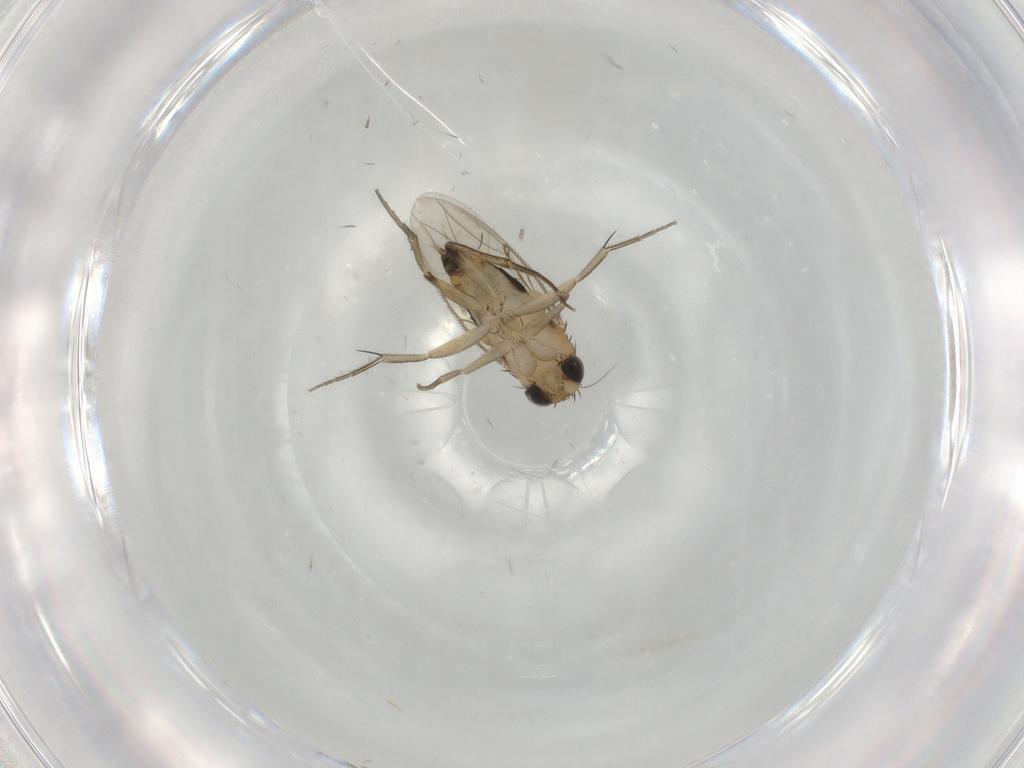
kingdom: Animalia
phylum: Arthropoda
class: Insecta
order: Diptera
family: Phoridae
